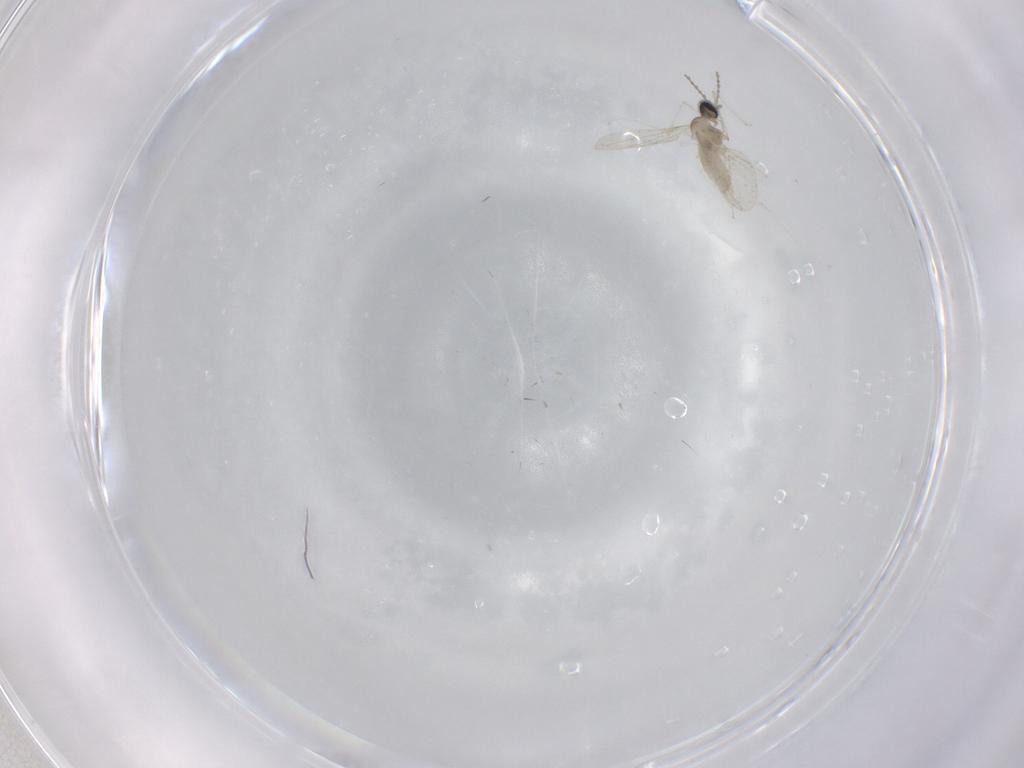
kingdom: Animalia
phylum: Arthropoda
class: Insecta
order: Diptera
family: Cecidomyiidae
